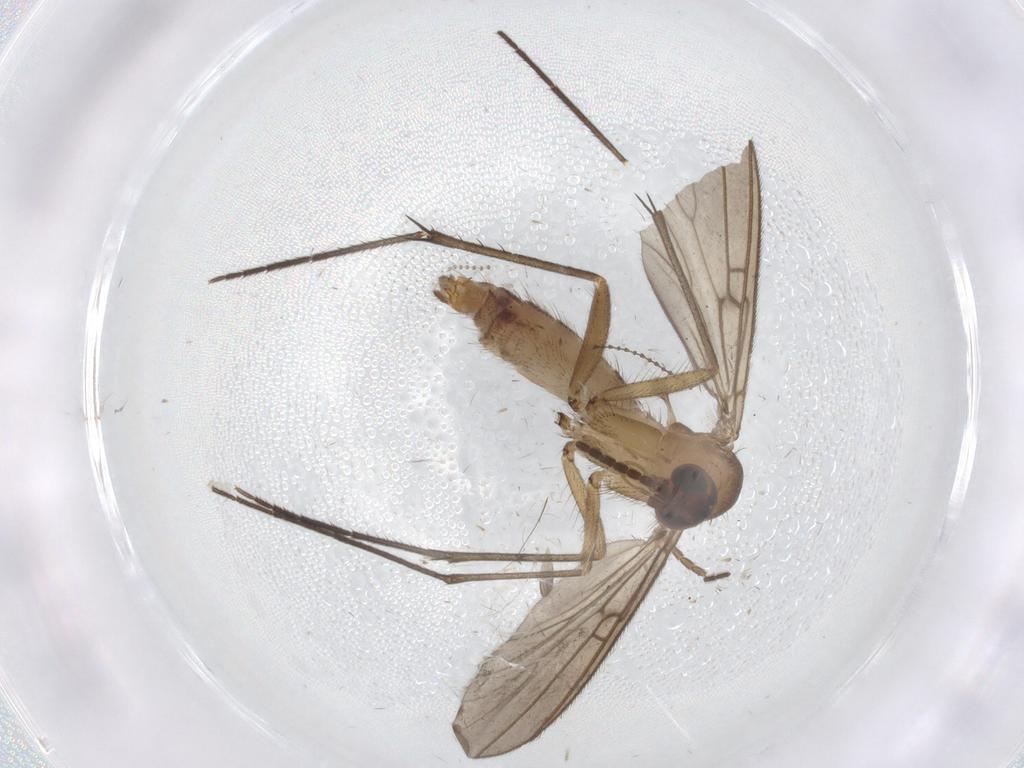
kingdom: Animalia
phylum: Arthropoda
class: Insecta
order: Diptera
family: Mycetophilidae
